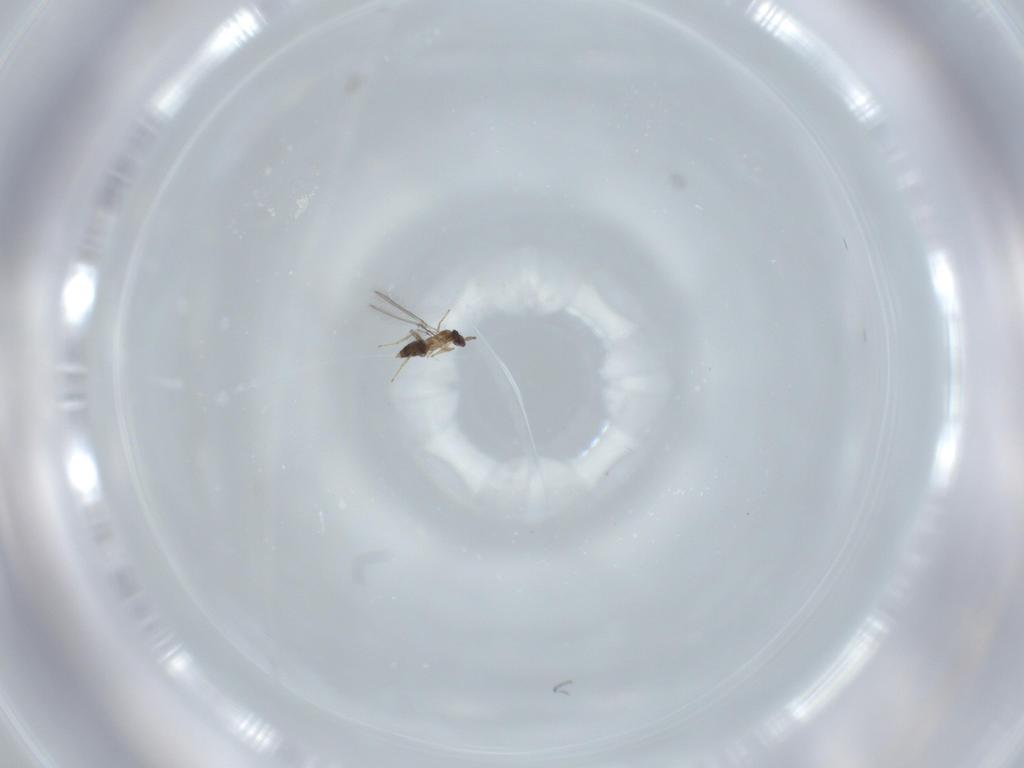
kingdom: Animalia
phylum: Arthropoda
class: Insecta
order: Hymenoptera
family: Mymaridae
